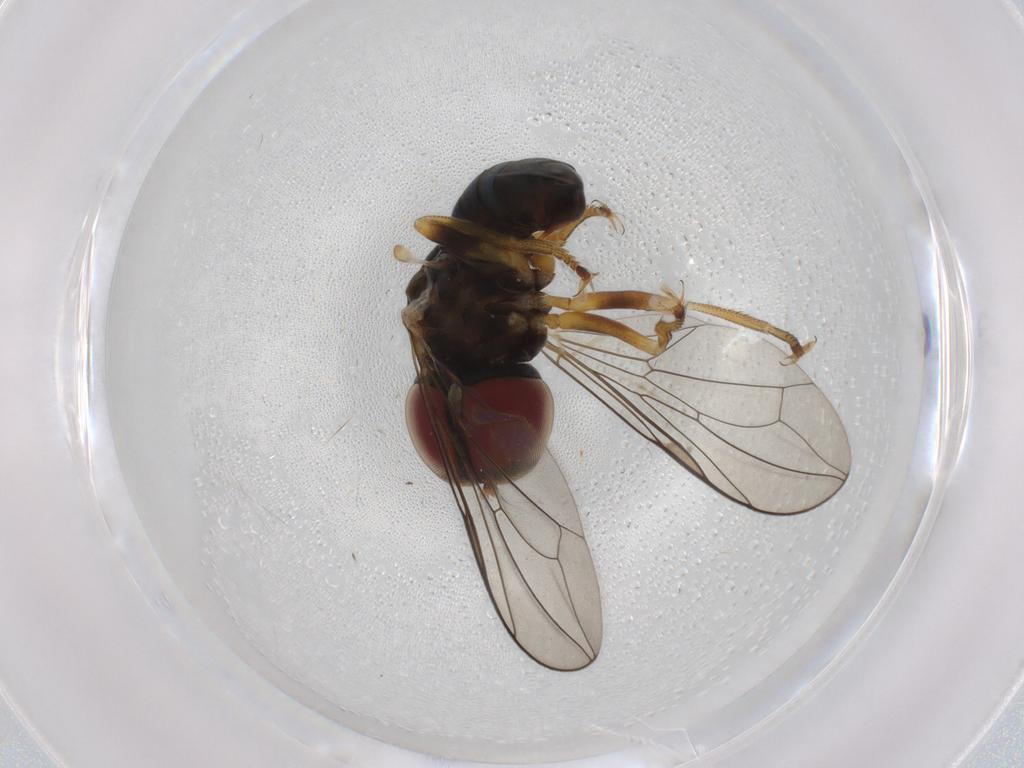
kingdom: Animalia
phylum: Arthropoda
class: Insecta
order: Diptera
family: Pipunculidae
